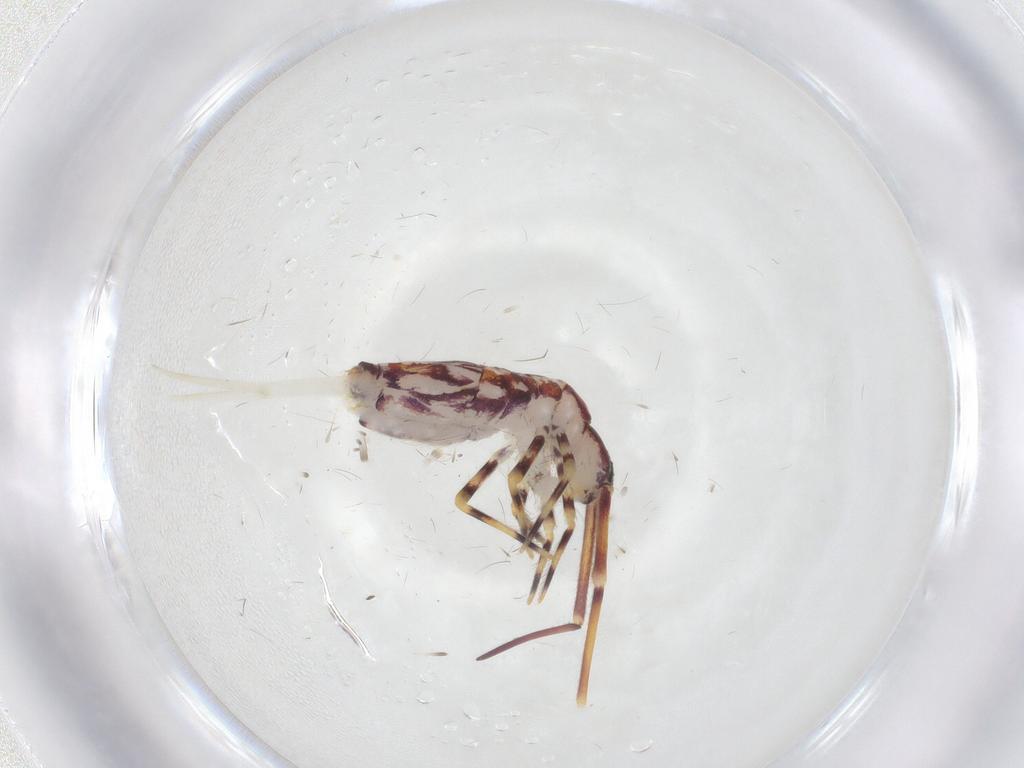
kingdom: Animalia
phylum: Arthropoda
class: Collembola
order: Entomobryomorpha
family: Entomobryidae
